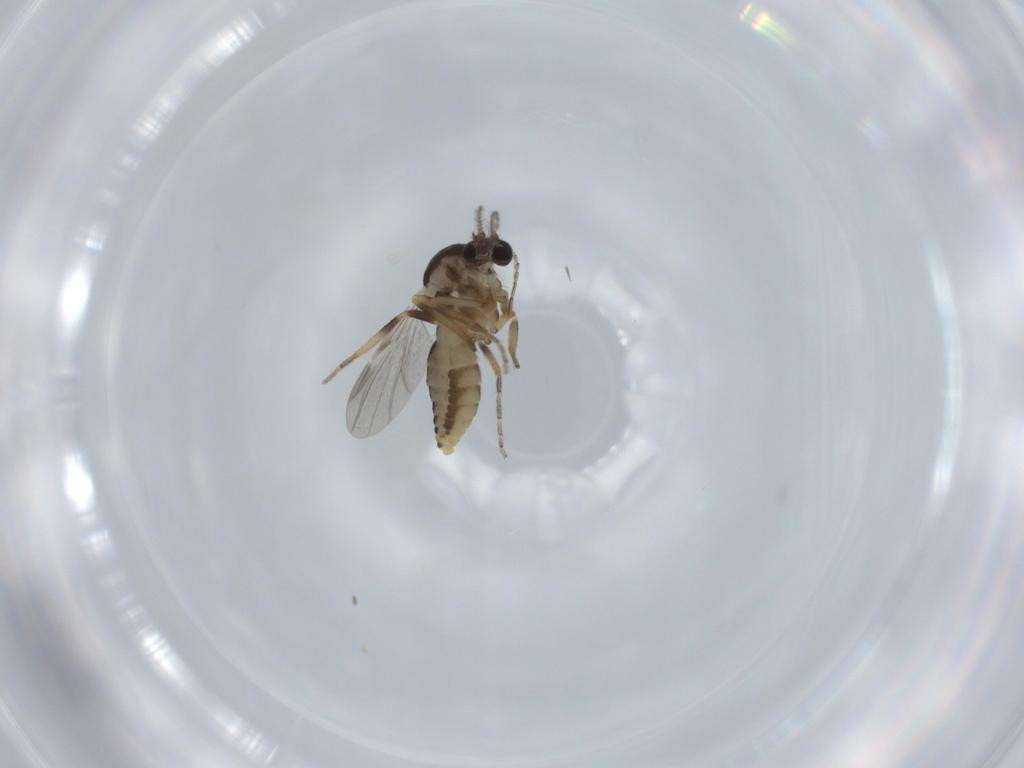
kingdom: Animalia
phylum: Arthropoda
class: Insecta
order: Diptera
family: Ceratopogonidae
